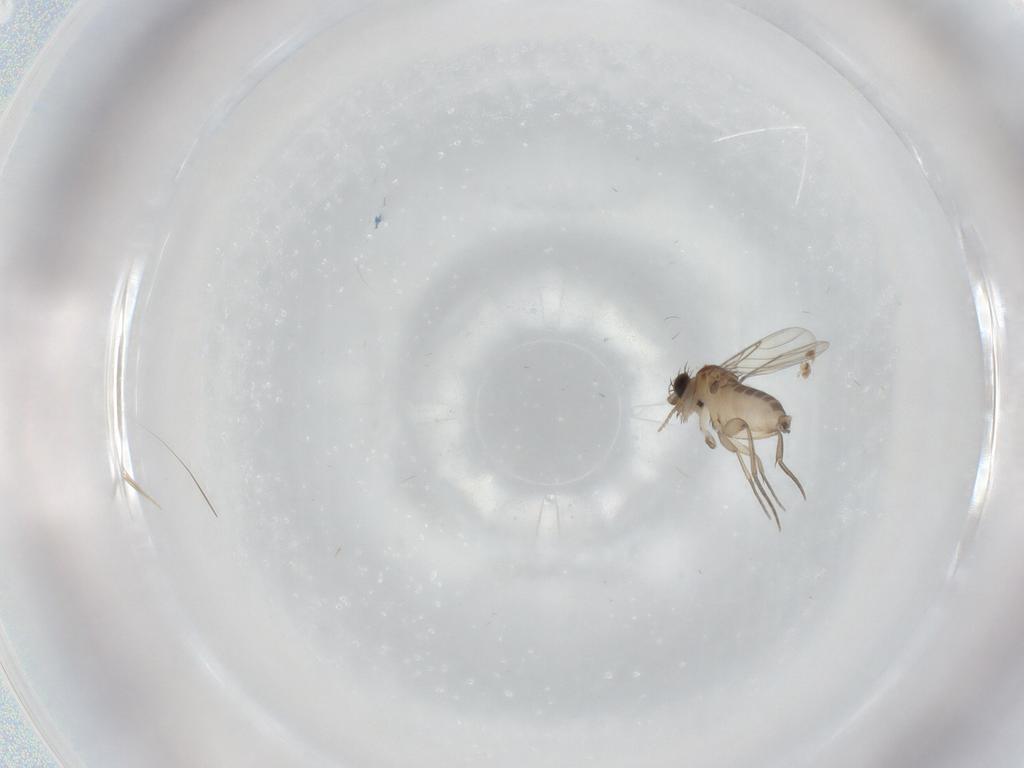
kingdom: Animalia
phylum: Arthropoda
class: Insecta
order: Diptera
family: Phoridae
